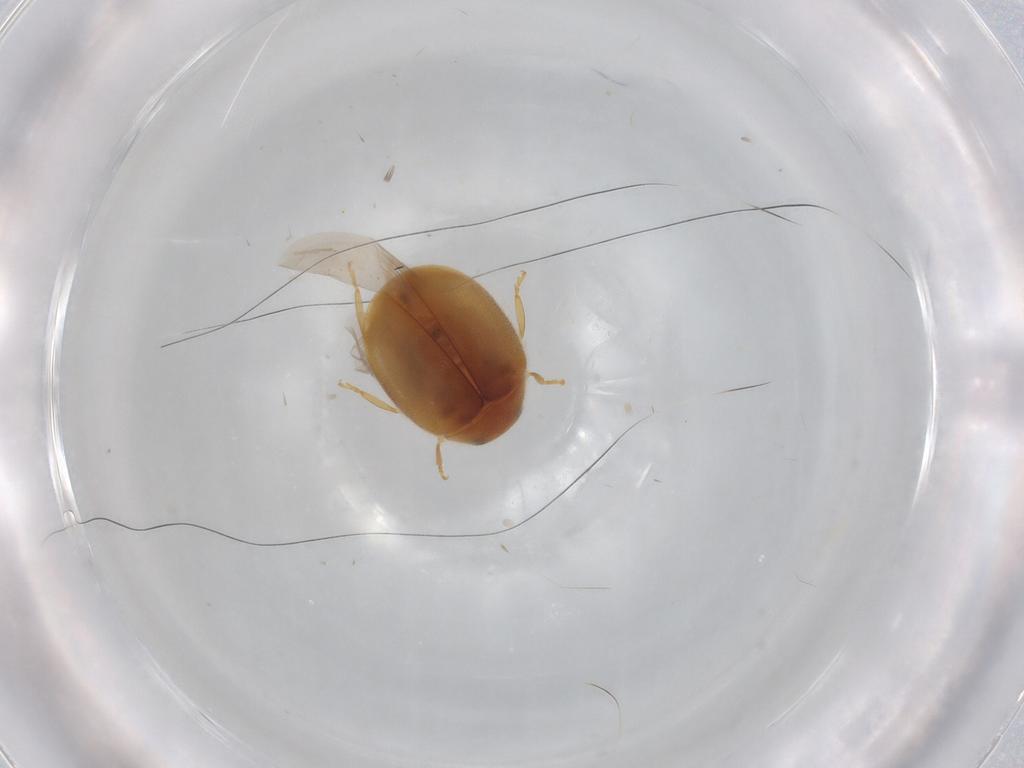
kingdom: Animalia
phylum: Arthropoda
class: Insecta
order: Coleoptera
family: Coccinellidae
